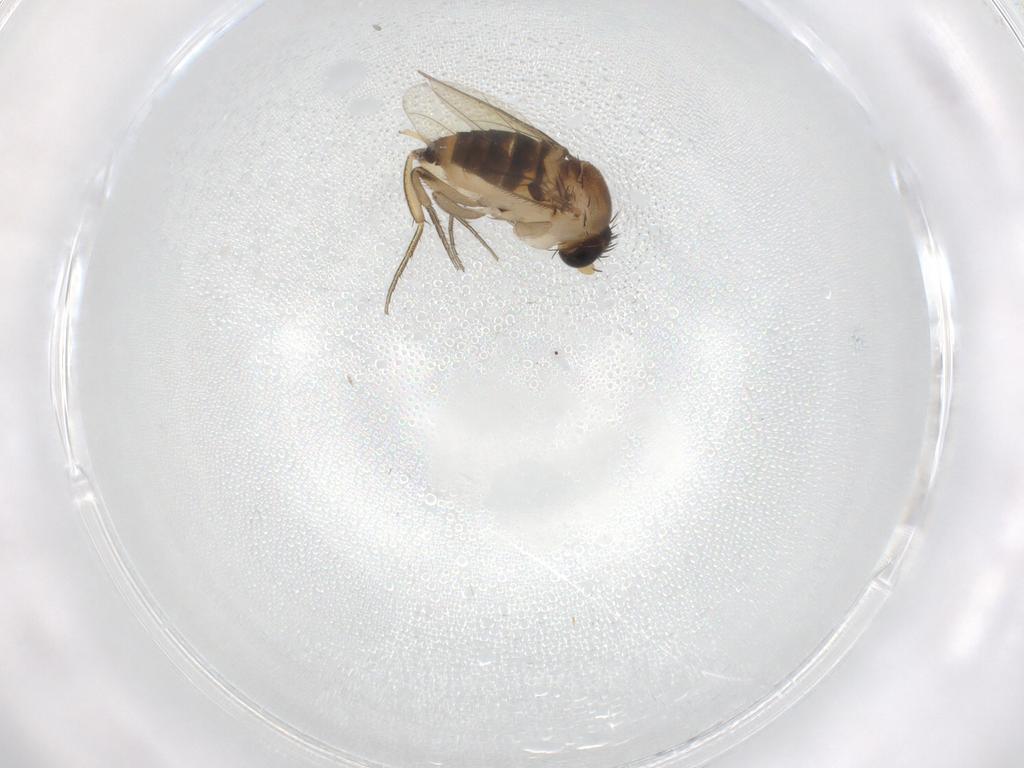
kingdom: Animalia
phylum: Arthropoda
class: Insecta
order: Diptera
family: Phoridae
